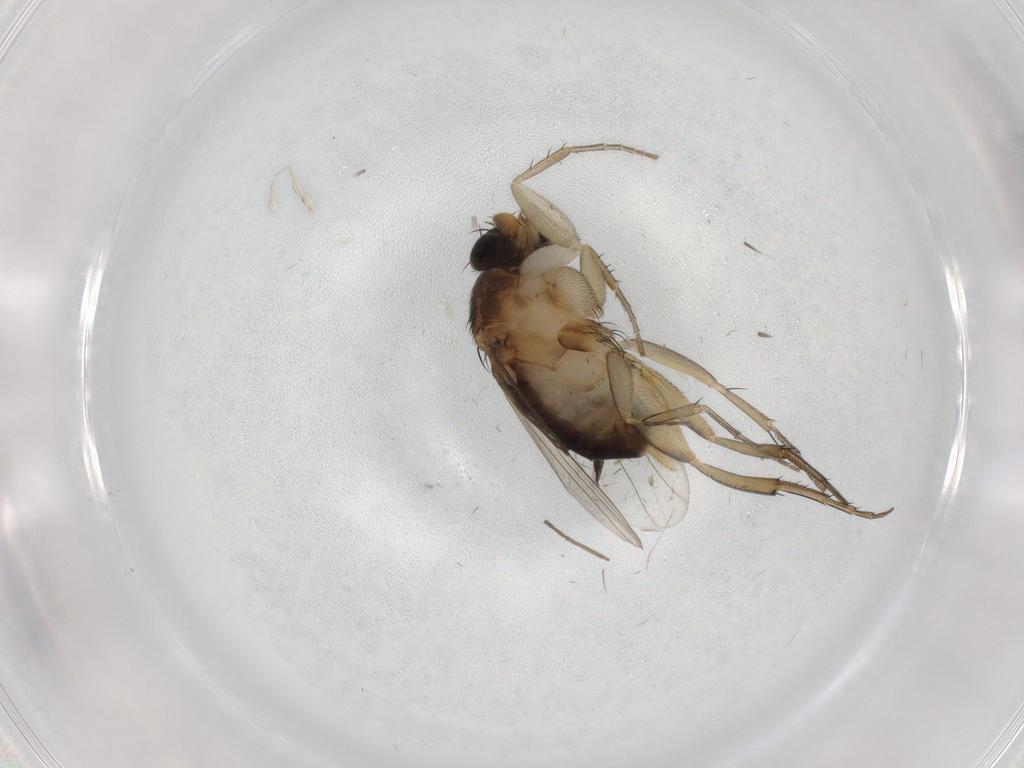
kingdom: Animalia
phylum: Arthropoda
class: Insecta
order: Diptera
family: Phoridae
